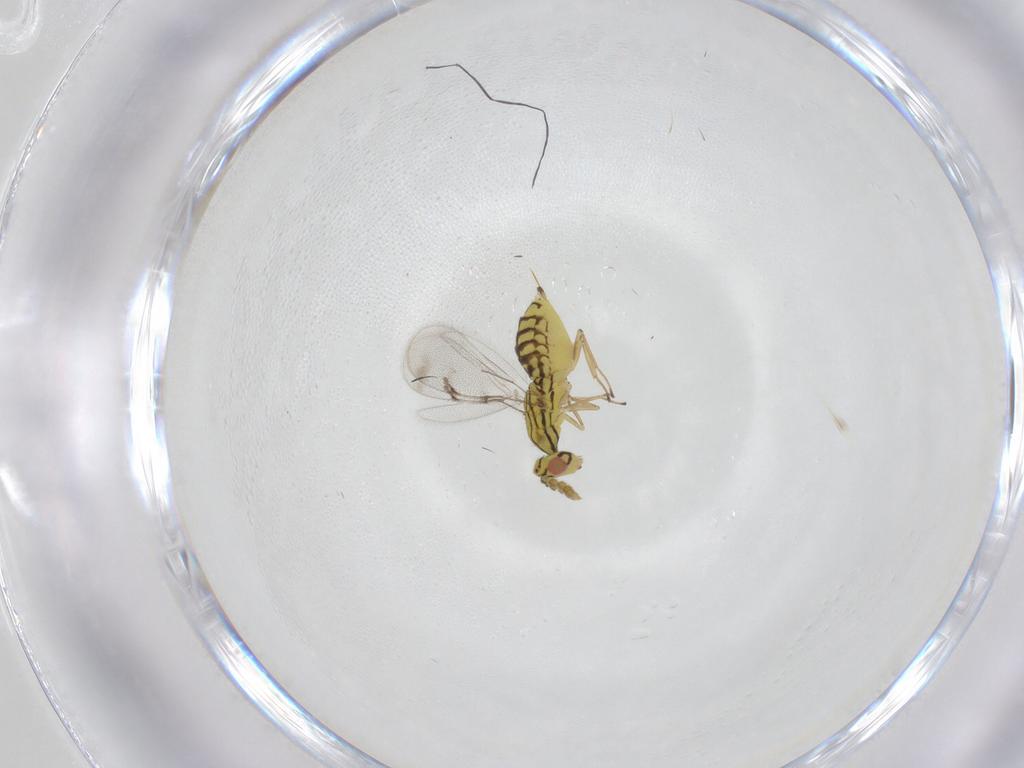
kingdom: Animalia
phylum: Arthropoda
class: Insecta
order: Hymenoptera
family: Eulophidae
